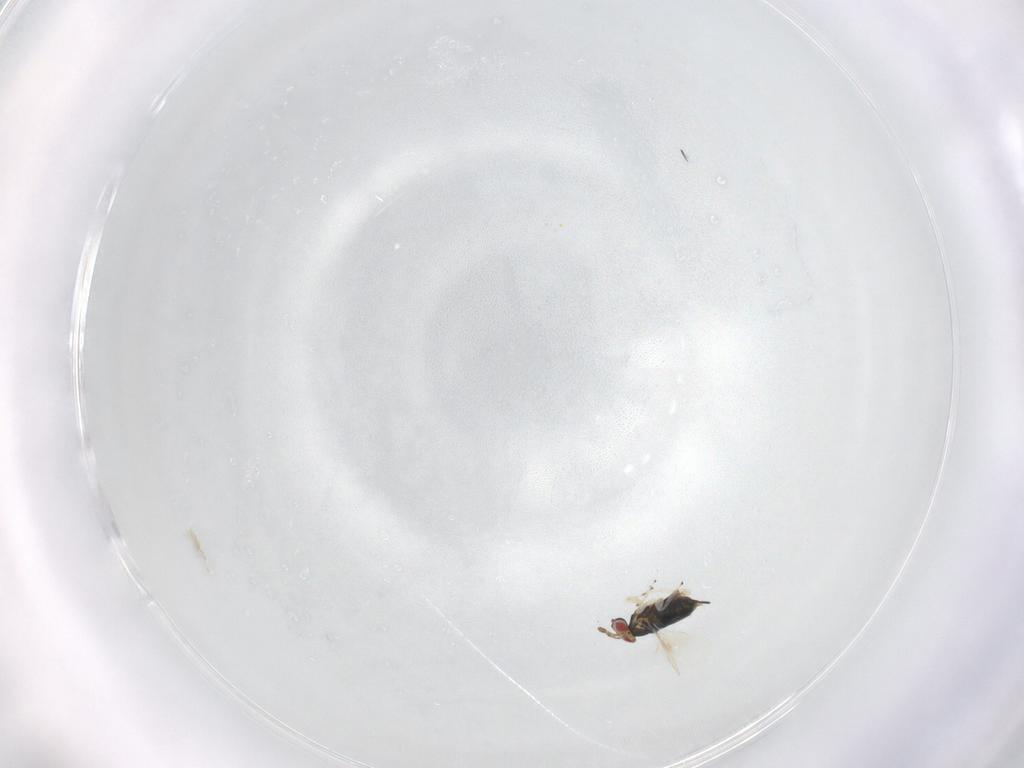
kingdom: Animalia
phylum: Arthropoda
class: Insecta
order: Hymenoptera
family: Azotidae
